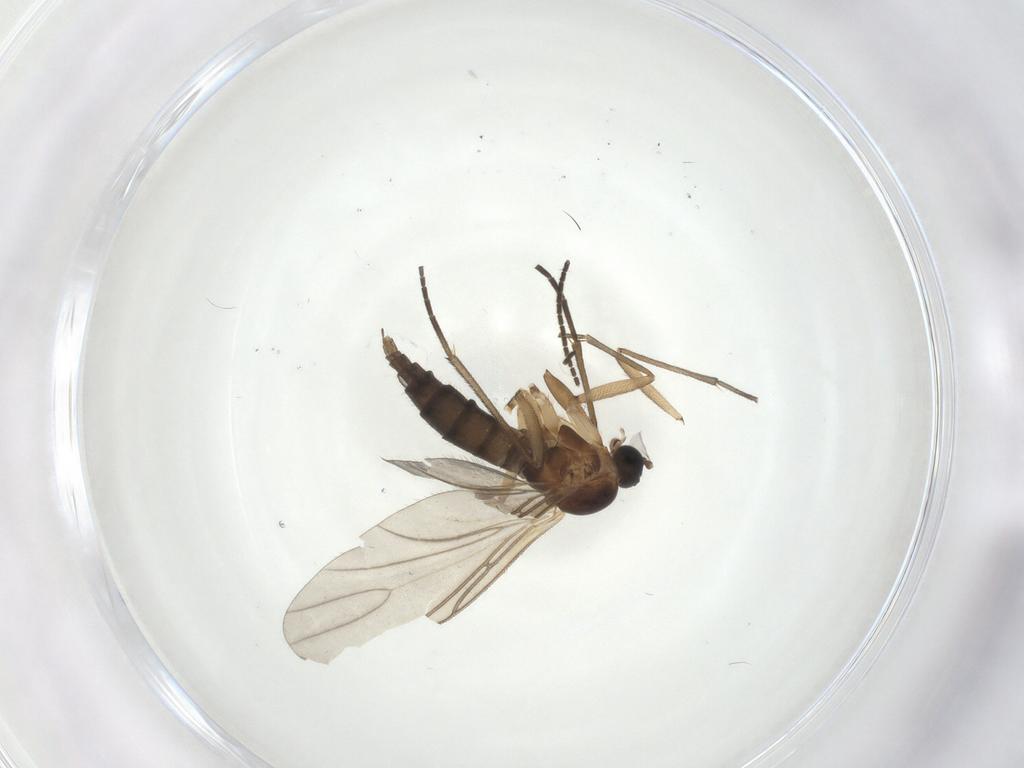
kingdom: Animalia
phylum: Arthropoda
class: Insecta
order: Diptera
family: Sciaridae
